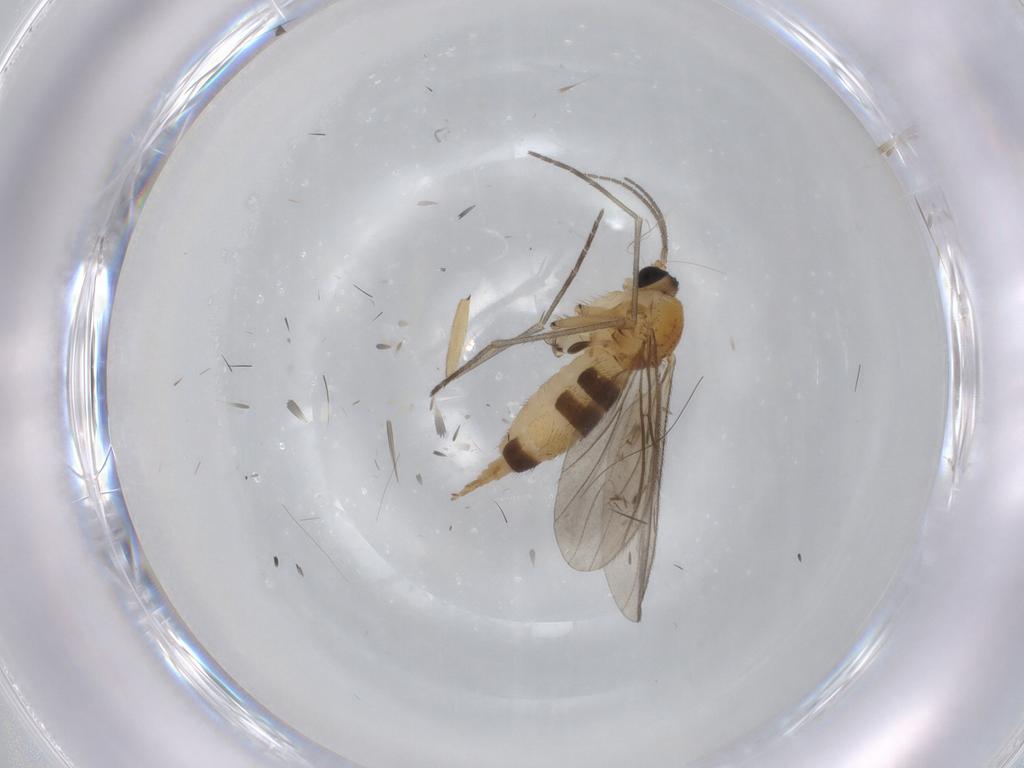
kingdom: Animalia
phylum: Arthropoda
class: Insecta
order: Diptera
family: Sciaridae
